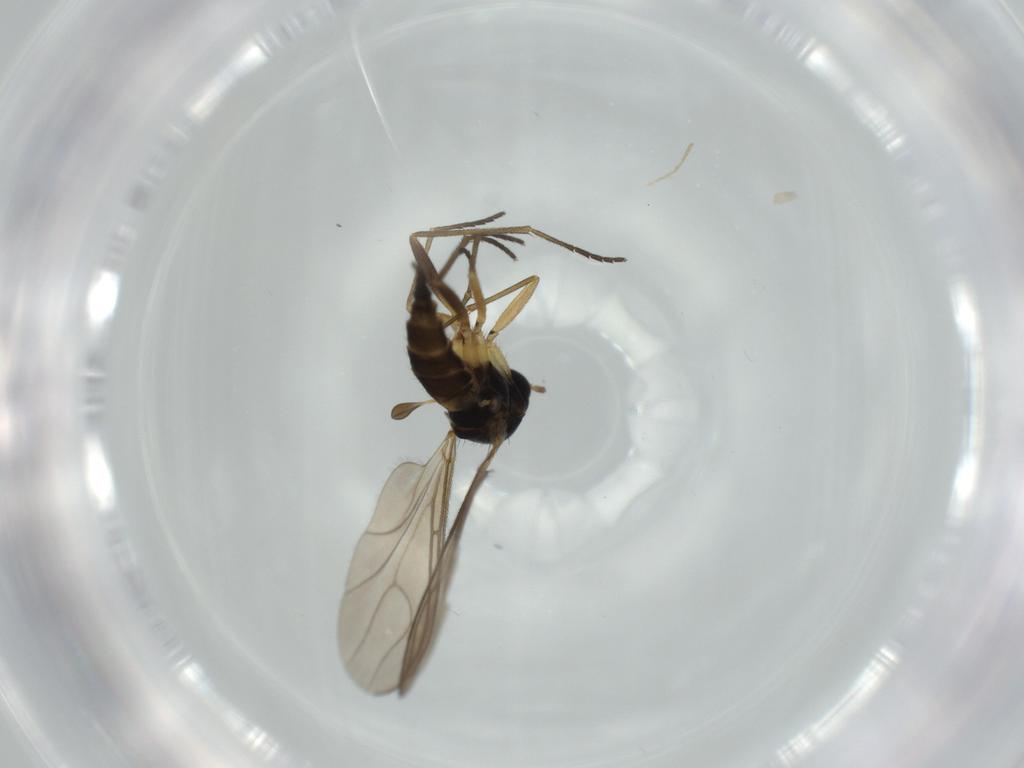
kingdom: Animalia
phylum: Arthropoda
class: Insecta
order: Diptera
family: Sciaridae
